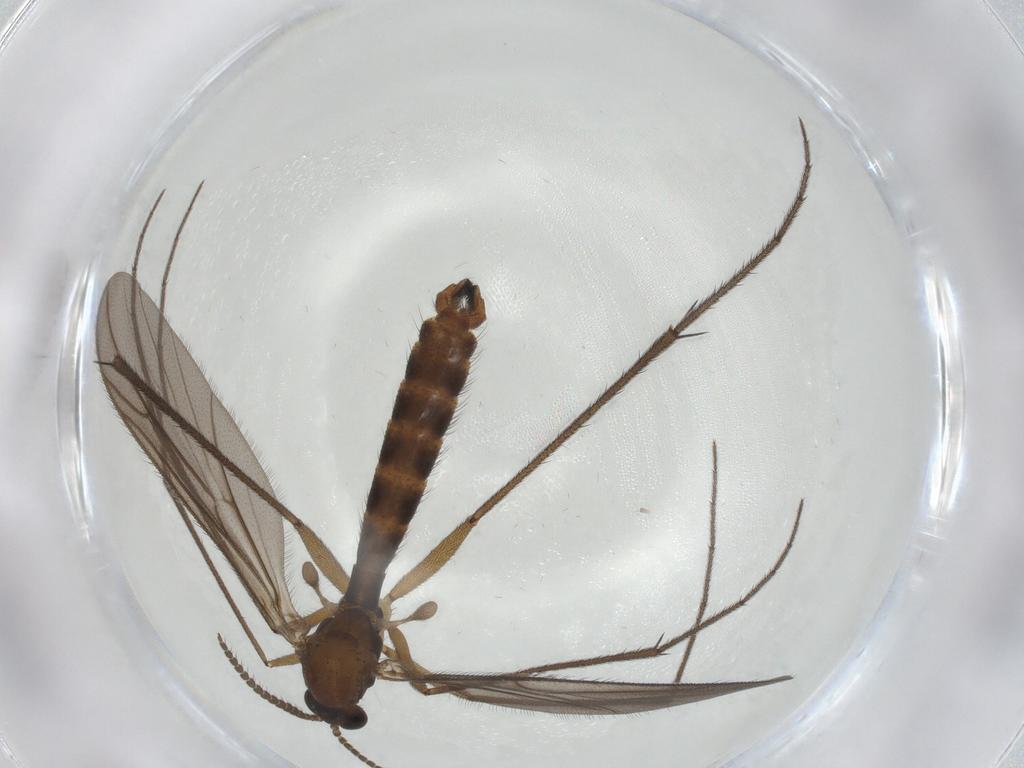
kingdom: Animalia
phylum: Arthropoda
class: Insecta
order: Diptera
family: Ditomyiidae
